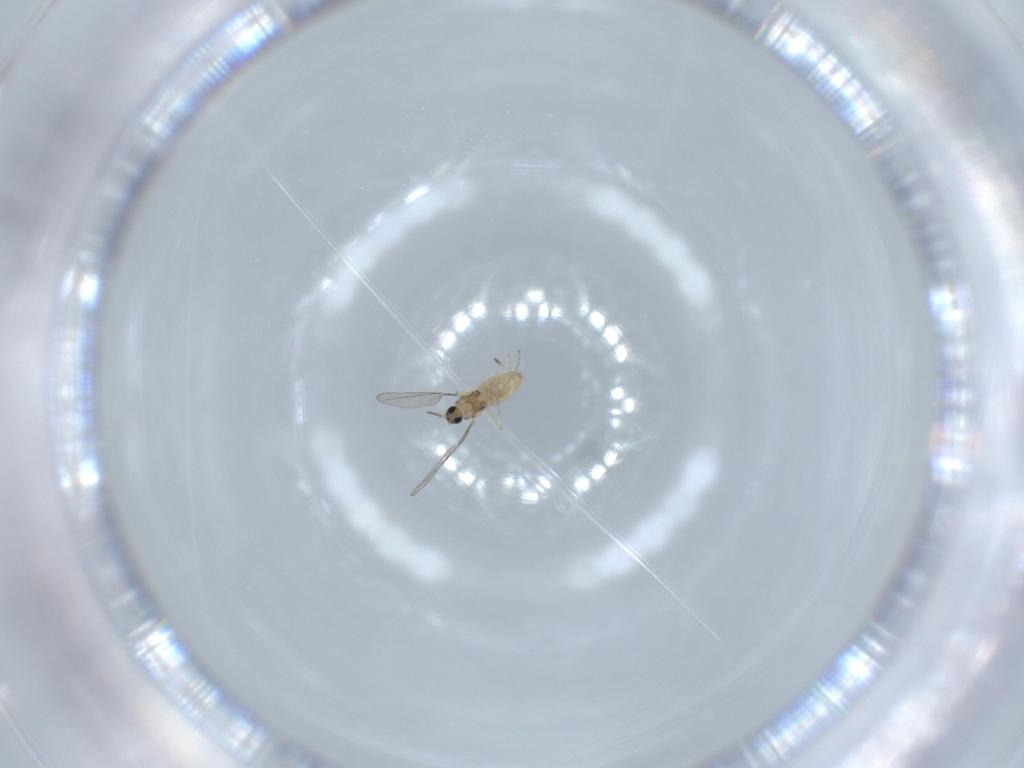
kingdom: Animalia
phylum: Arthropoda
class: Insecta
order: Diptera
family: Cecidomyiidae
